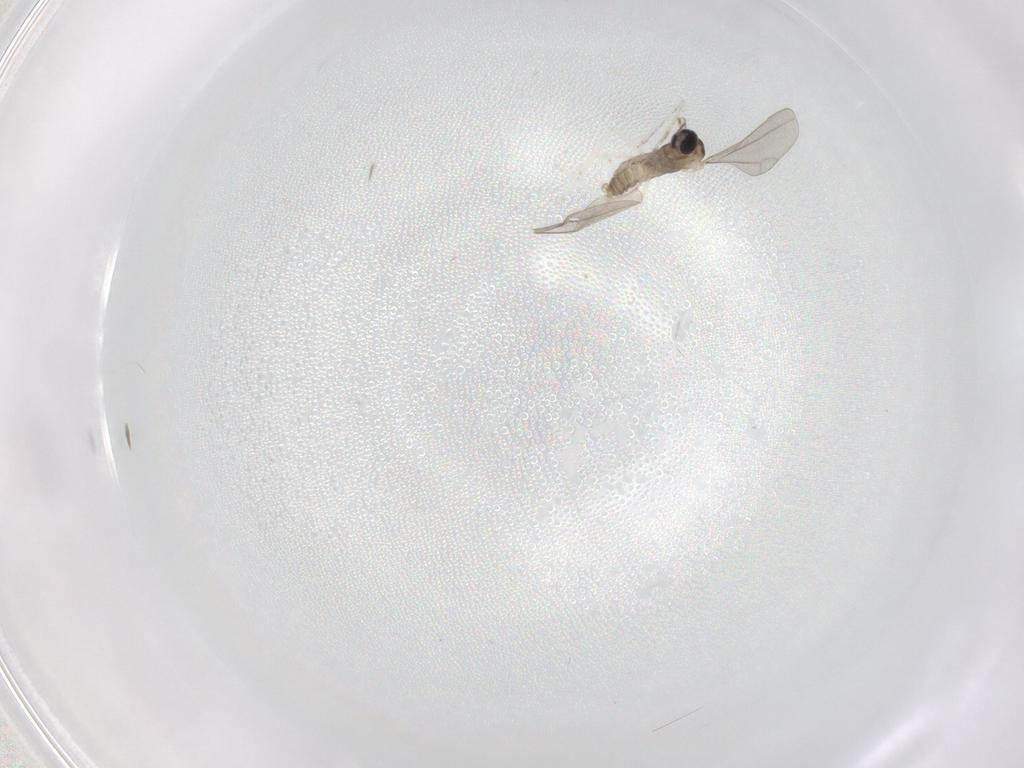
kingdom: Animalia
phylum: Arthropoda
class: Insecta
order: Diptera
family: Cecidomyiidae
